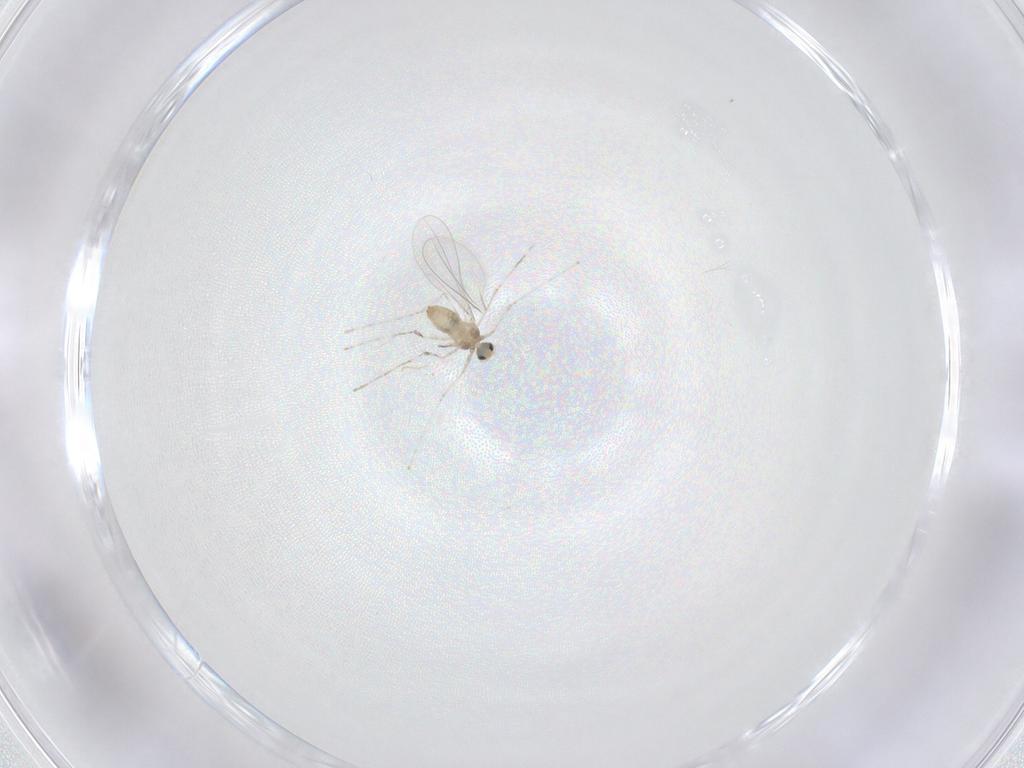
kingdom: Animalia
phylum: Arthropoda
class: Insecta
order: Diptera
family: Cecidomyiidae
